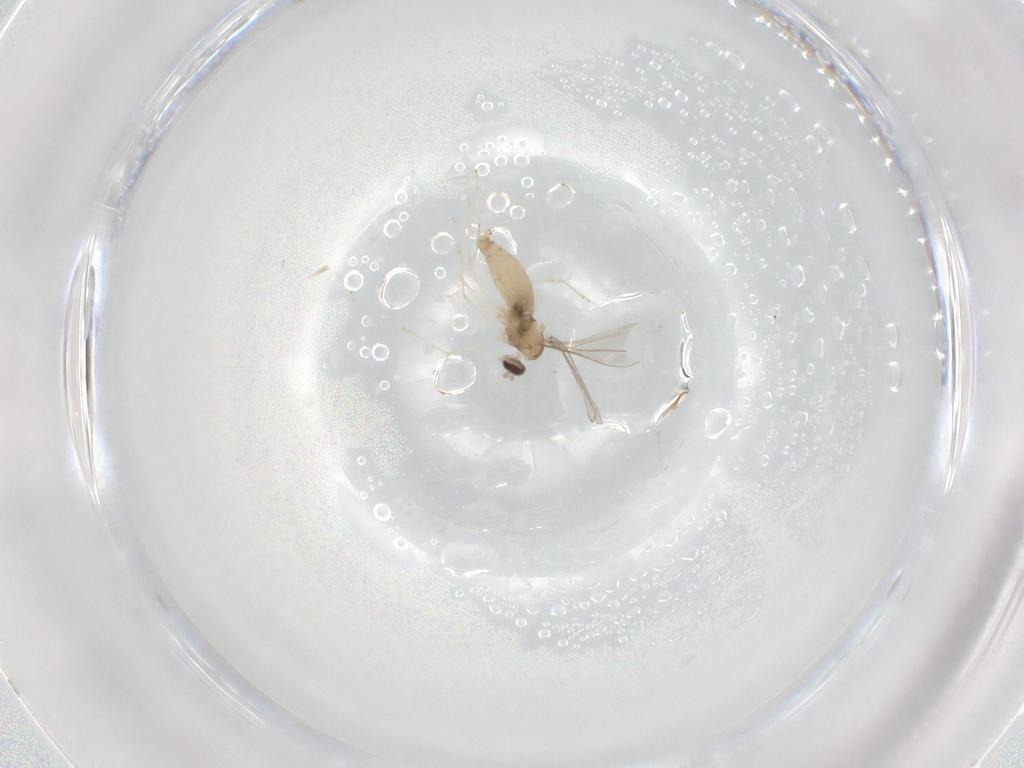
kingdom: Animalia
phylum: Arthropoda
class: Insecta
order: Diptera
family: Cecidomyiidae
